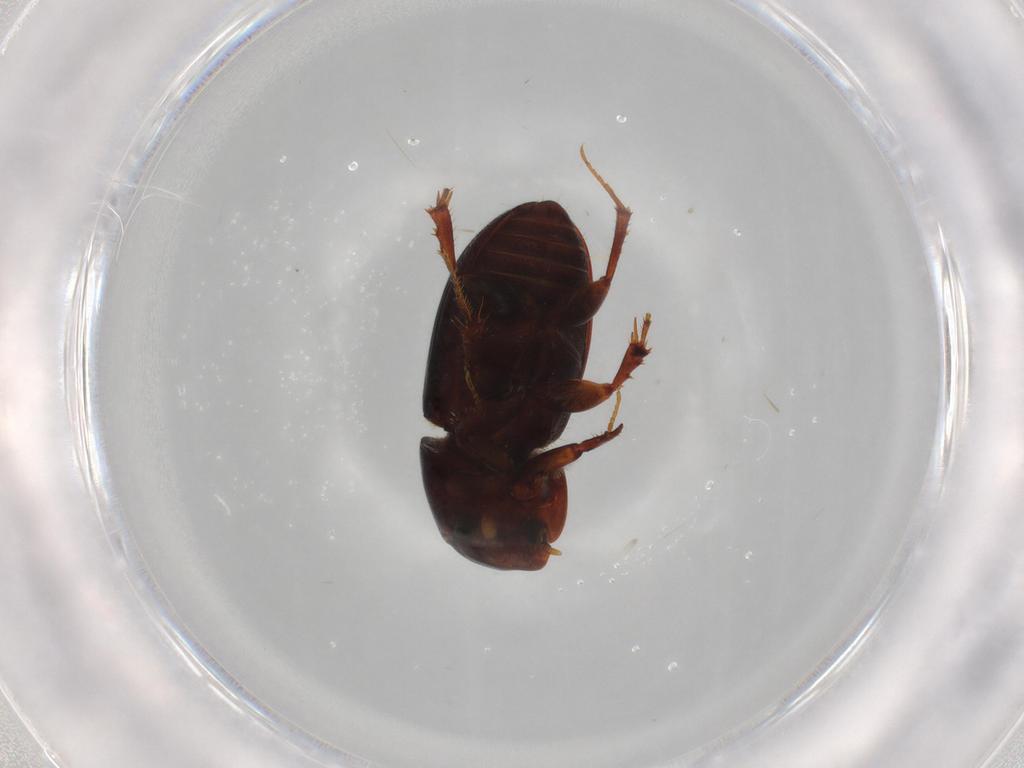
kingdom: Animalia
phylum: Arthropoda
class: Insecta
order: Coleoptera
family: Scarabaeidae
